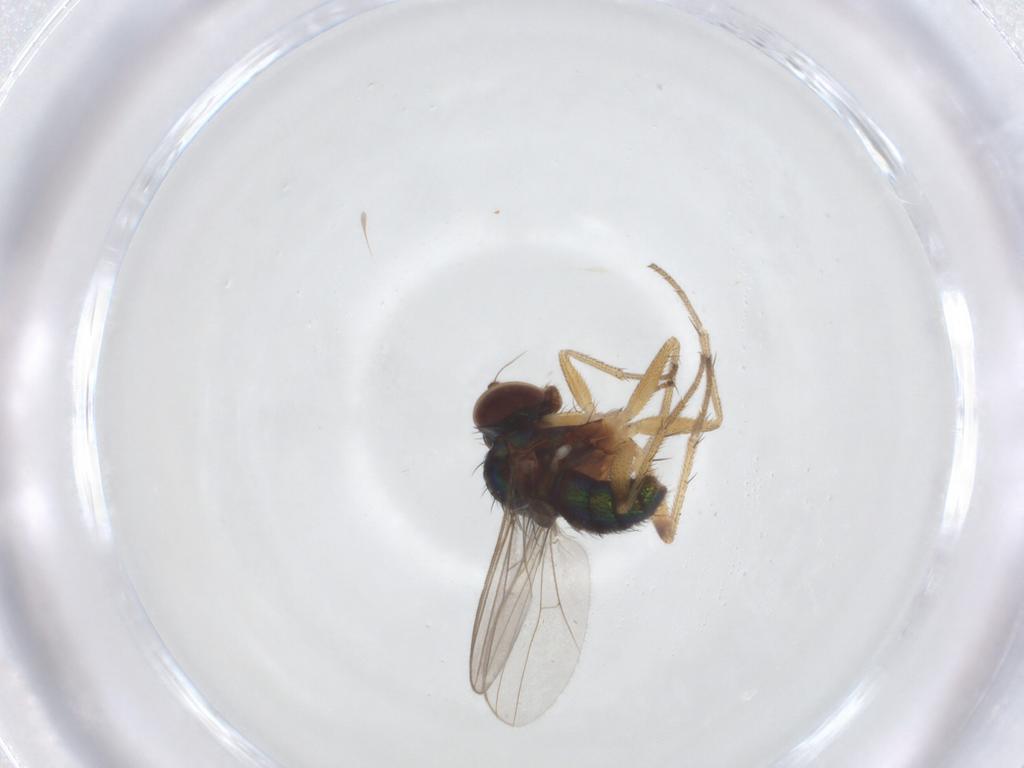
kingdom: Animalia
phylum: Arthropoda
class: Insecta
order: Diptera
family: Dolichopodidae
